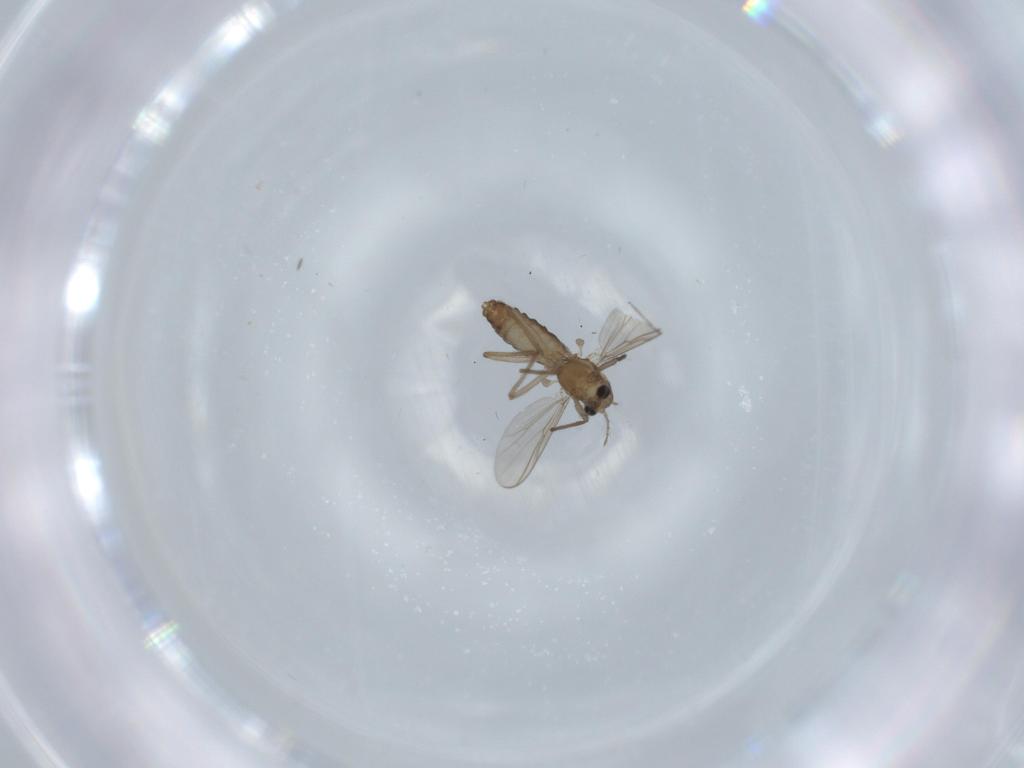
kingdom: Animalia
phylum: Arthropoda
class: Insecta
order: Diptera
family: Chironomidae
